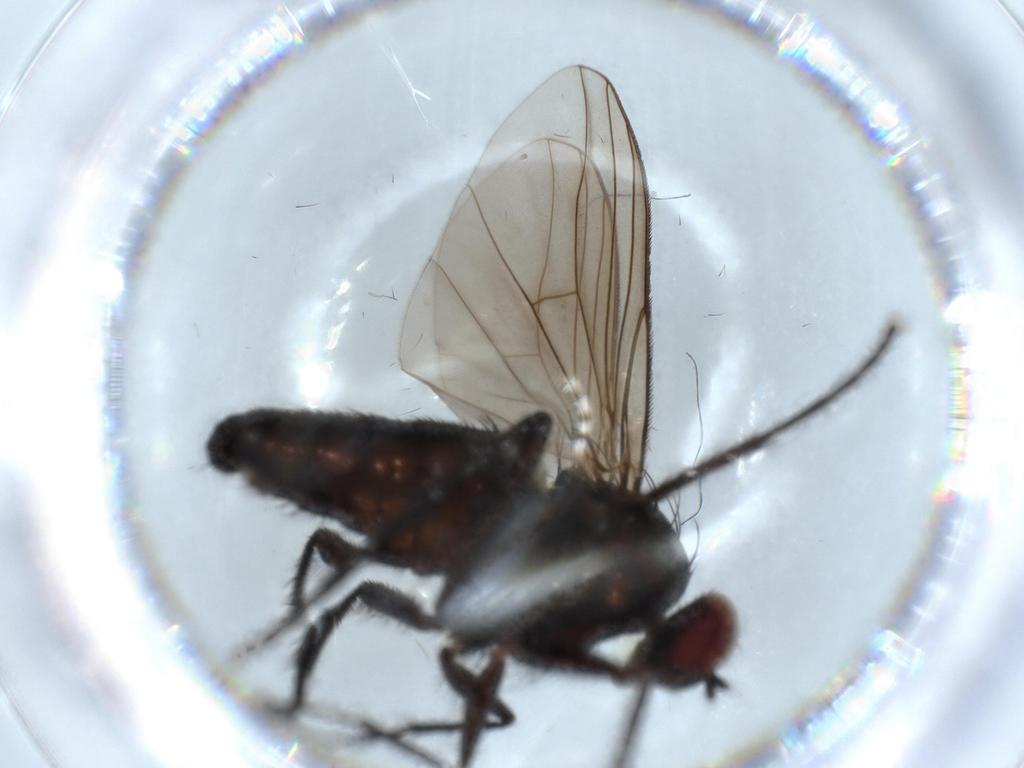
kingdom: Animalia
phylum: Arthropoda
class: Insecta
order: Diptera
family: Dolichopodidae
